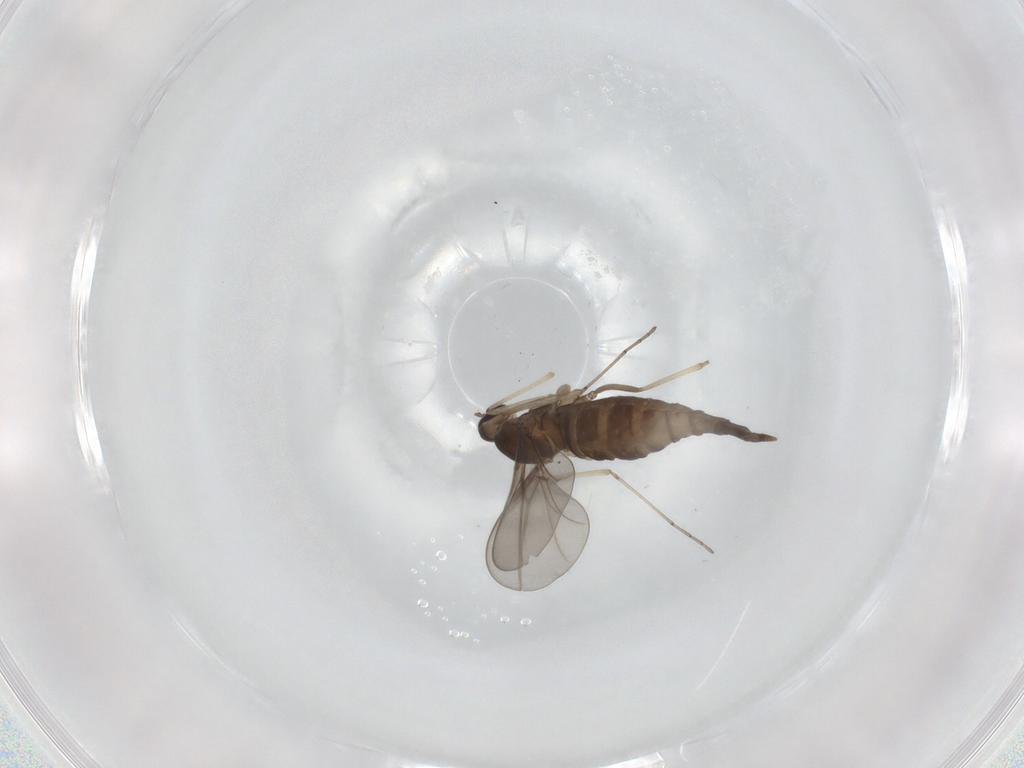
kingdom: Animalia
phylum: Arthropoda
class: Insecta
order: Diptera
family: Cecidomyiidae
